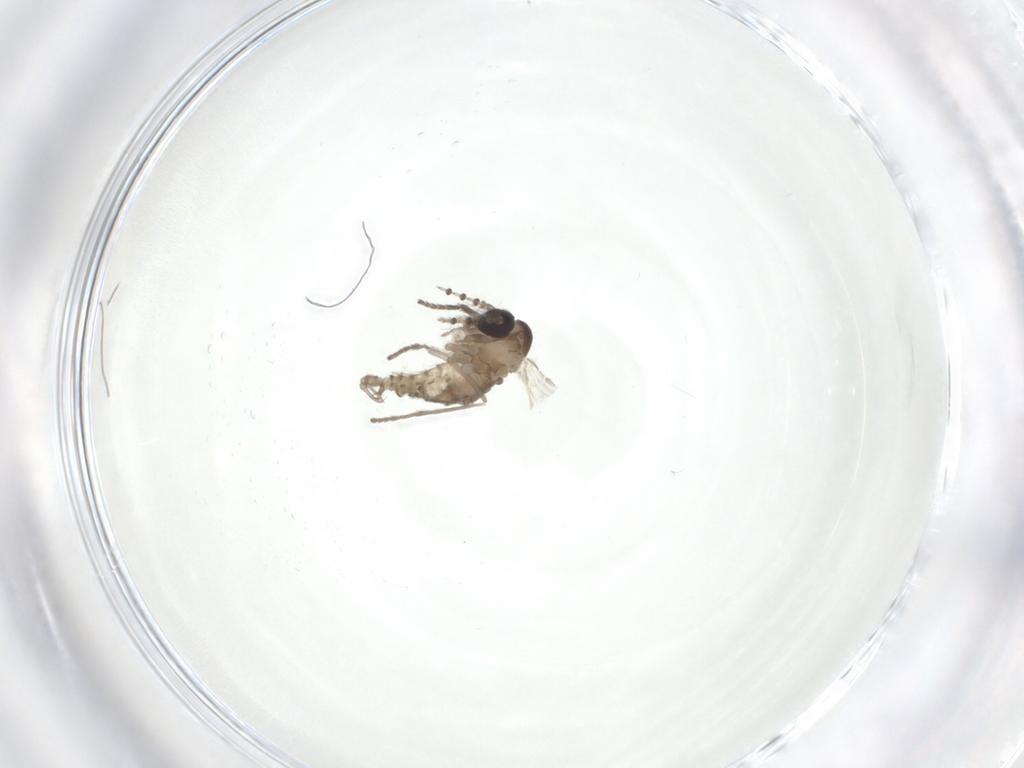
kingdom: Animalia
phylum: Arthropoda
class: Insecta
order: Diptera
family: Psychodidae
